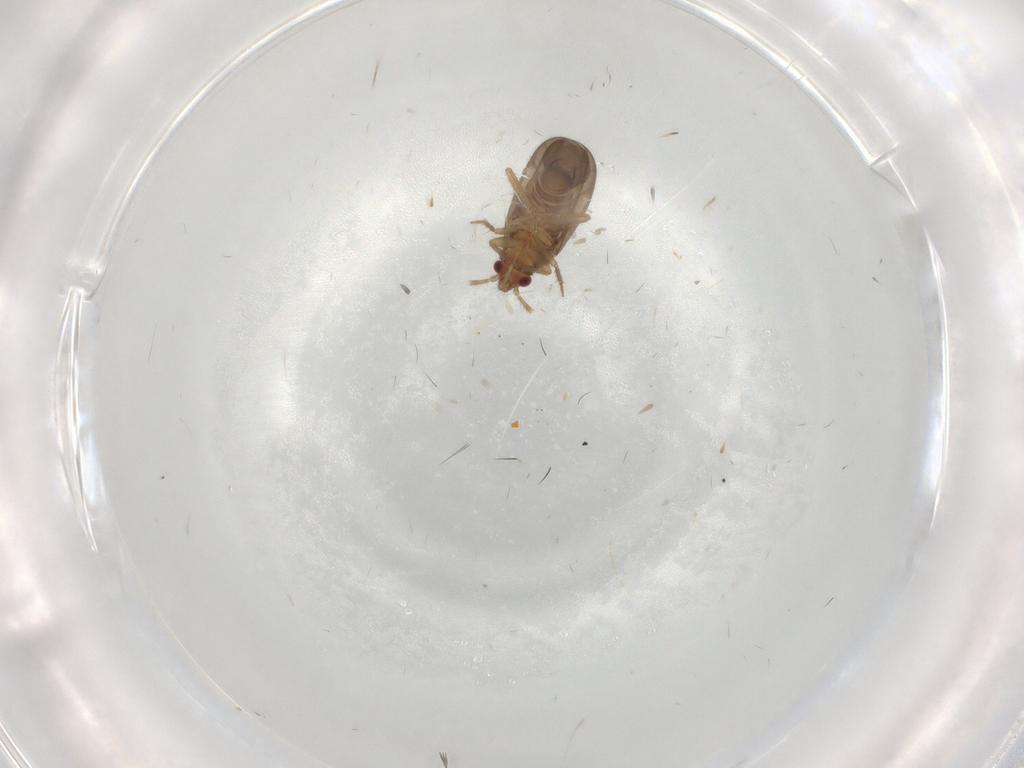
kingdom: Animalia
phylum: Arthropoda
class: Insecta
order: Hemiptera
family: Ceratocombidae
